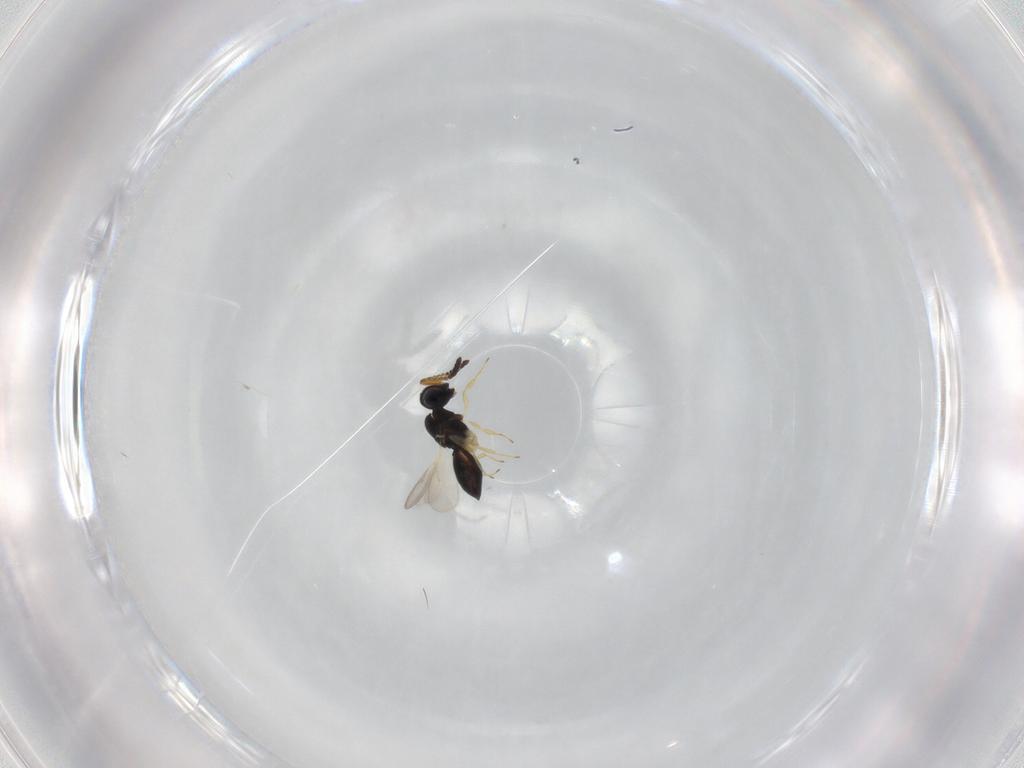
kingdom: Animalia
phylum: Arthropoda
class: Insecta
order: Hymenoptera
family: Scelionidae
